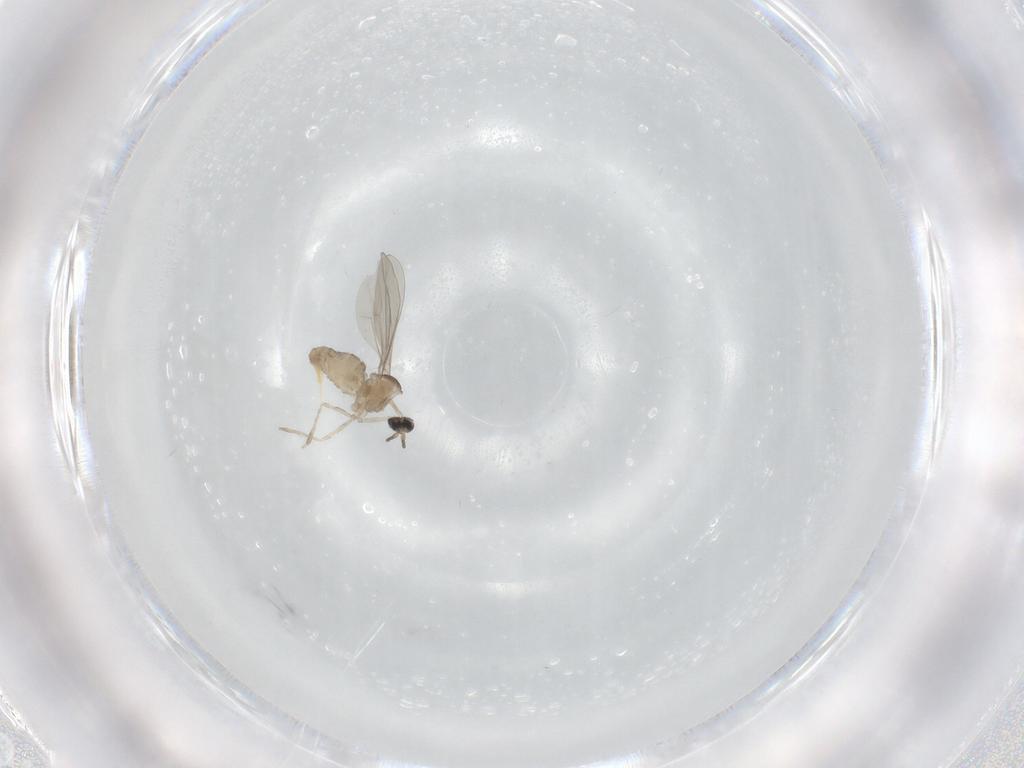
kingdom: Animalia
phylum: Arthropoda
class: Insecta
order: Diptera
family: Cecidomyiidae
